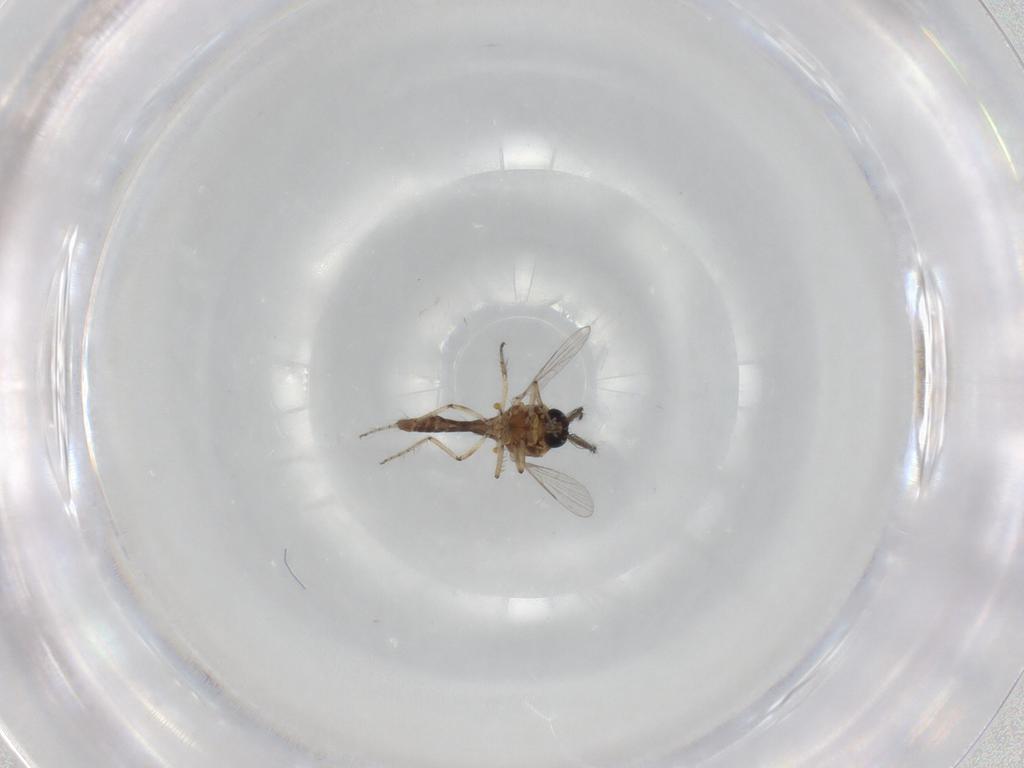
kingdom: Animalia
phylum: Arthropoda
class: Insecta
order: Diptera
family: Ceratopogonidae
